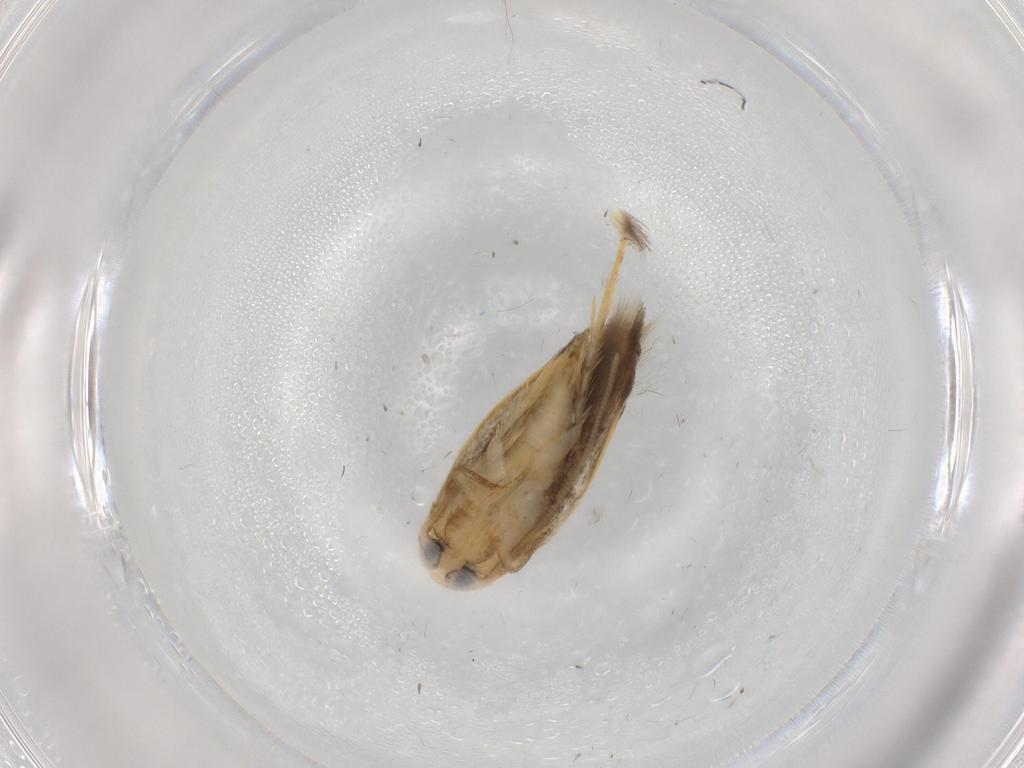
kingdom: Animalia
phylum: Arthropoda
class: Insecta
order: Lepidoptera
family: Opostegidae
